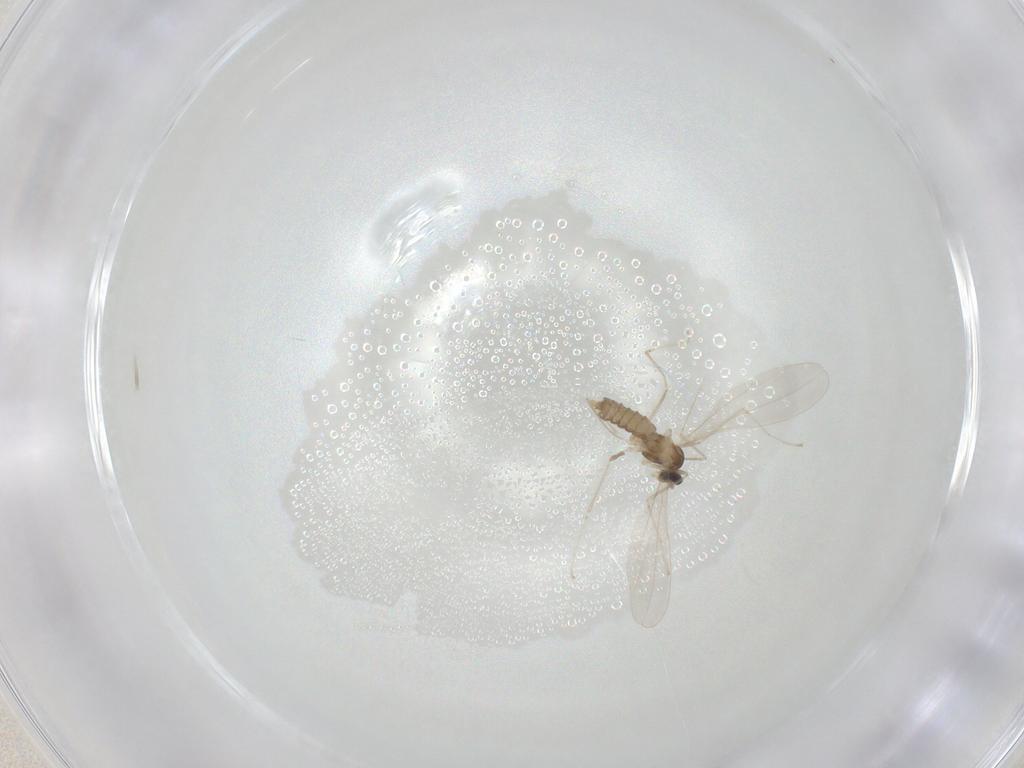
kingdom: Animalia
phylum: Arthropoda
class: Insecta
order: Diptera
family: Cecidomyiidae
